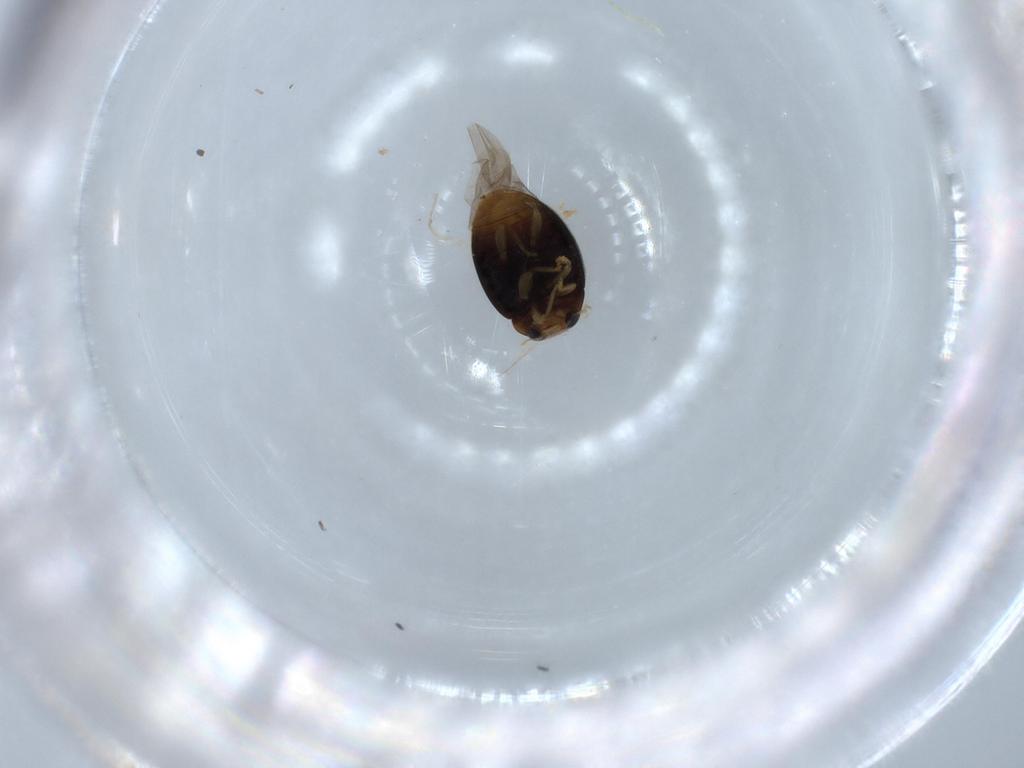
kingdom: Animalia
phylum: Arthropoda
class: Insecta
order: Coleoptera
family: Coccinellidae
